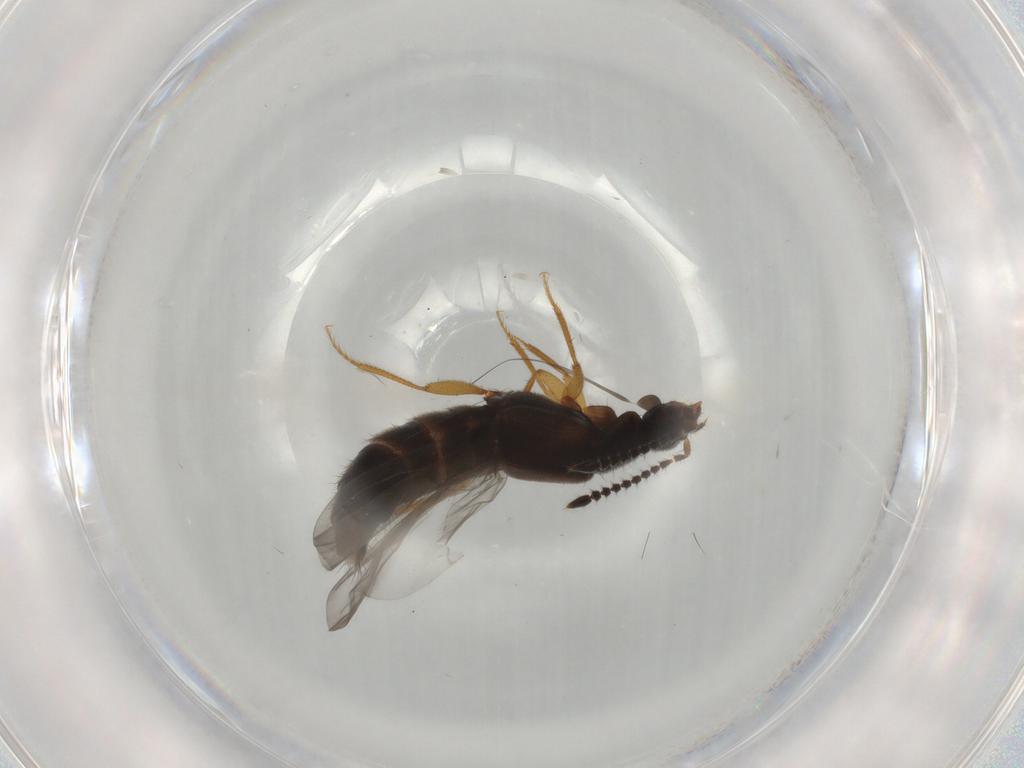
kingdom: Animalia
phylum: Arthropoda
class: Insecta
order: Coleoptera
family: Staphylinidae
